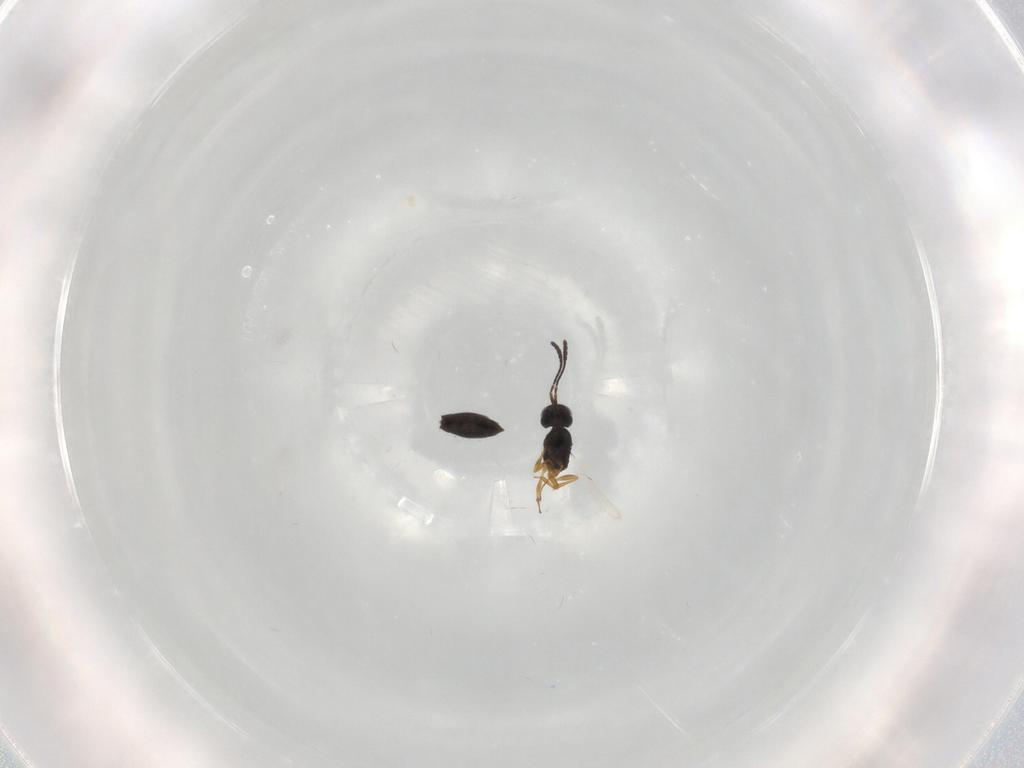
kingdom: Animalia
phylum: Arthropoda
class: Insecta
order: Hymenoptera
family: Scelionidae
